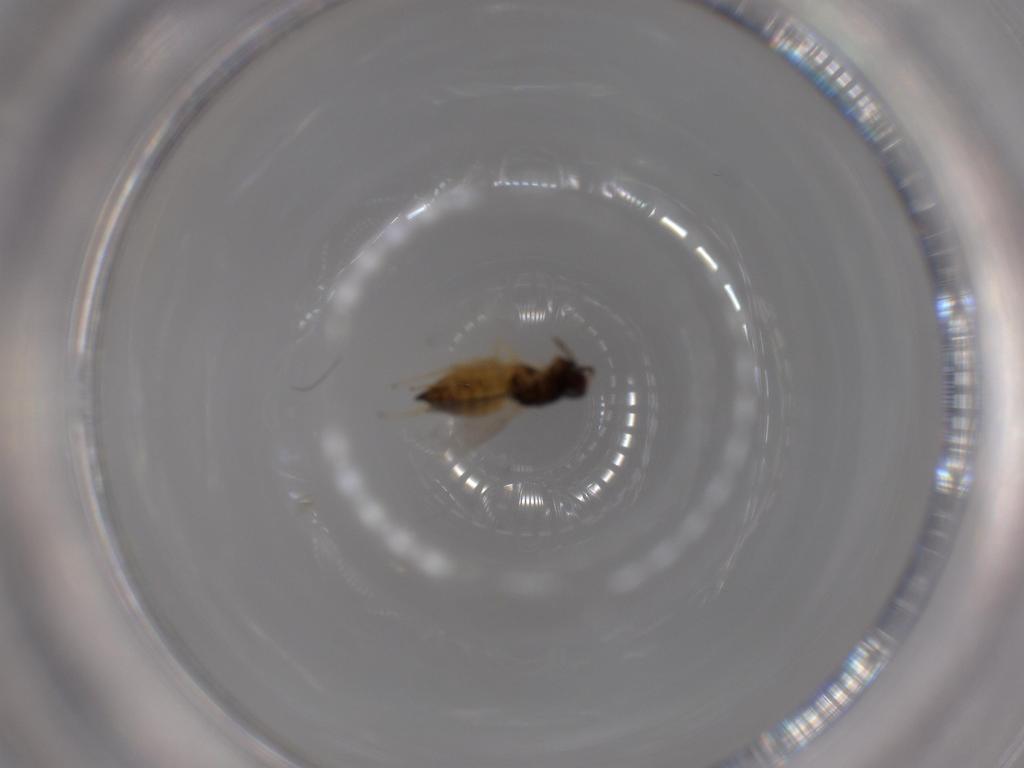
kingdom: Animalia
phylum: Arthropoda
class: Insecta
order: Hymenoptera
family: Eulophidae
